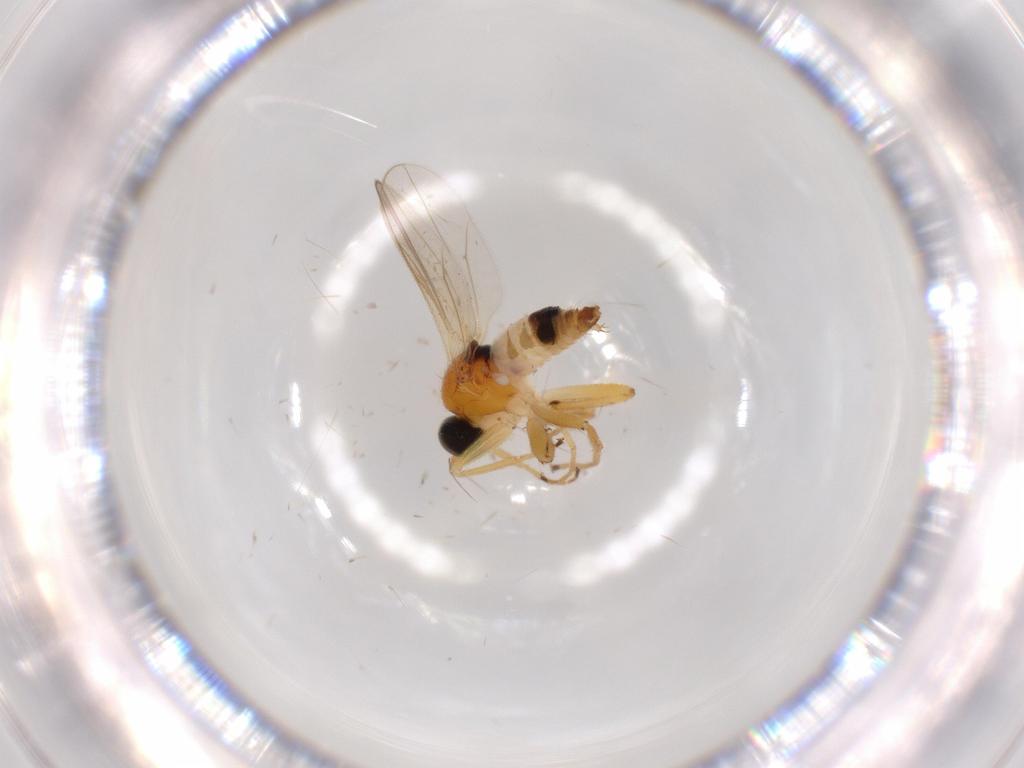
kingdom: Animalia
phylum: Arthropoda
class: Insecta
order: Diptera
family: Hybotidae
